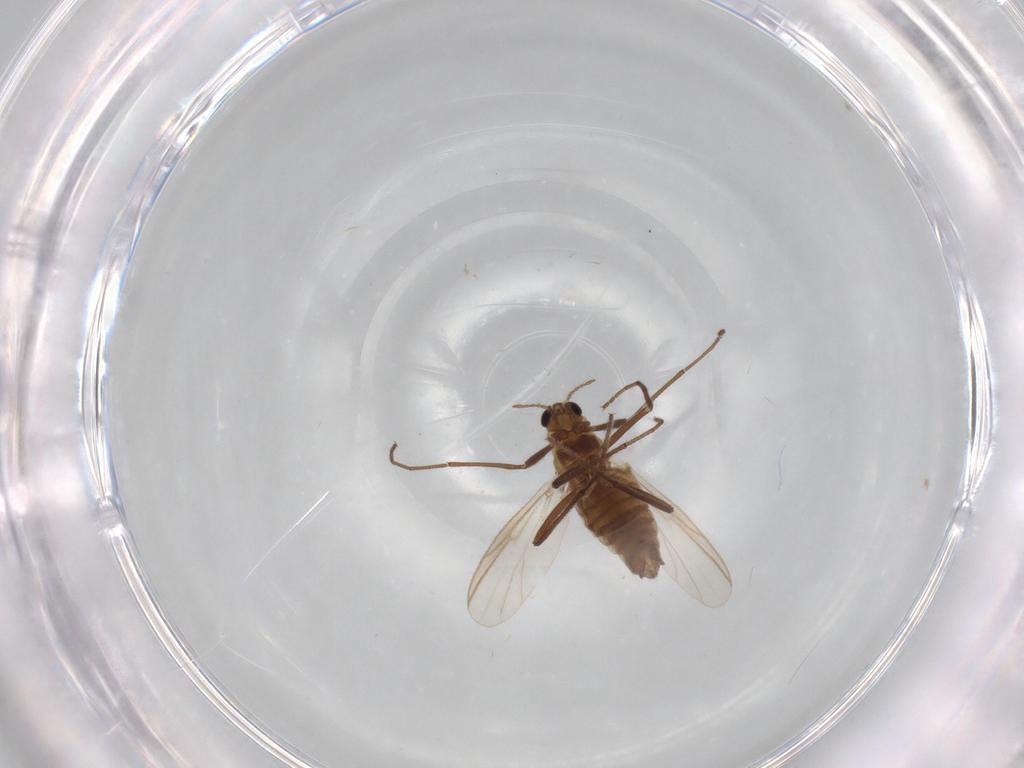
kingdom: Animalia
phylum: Arthropoda
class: Insecta
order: Diptera
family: Chironomidae
